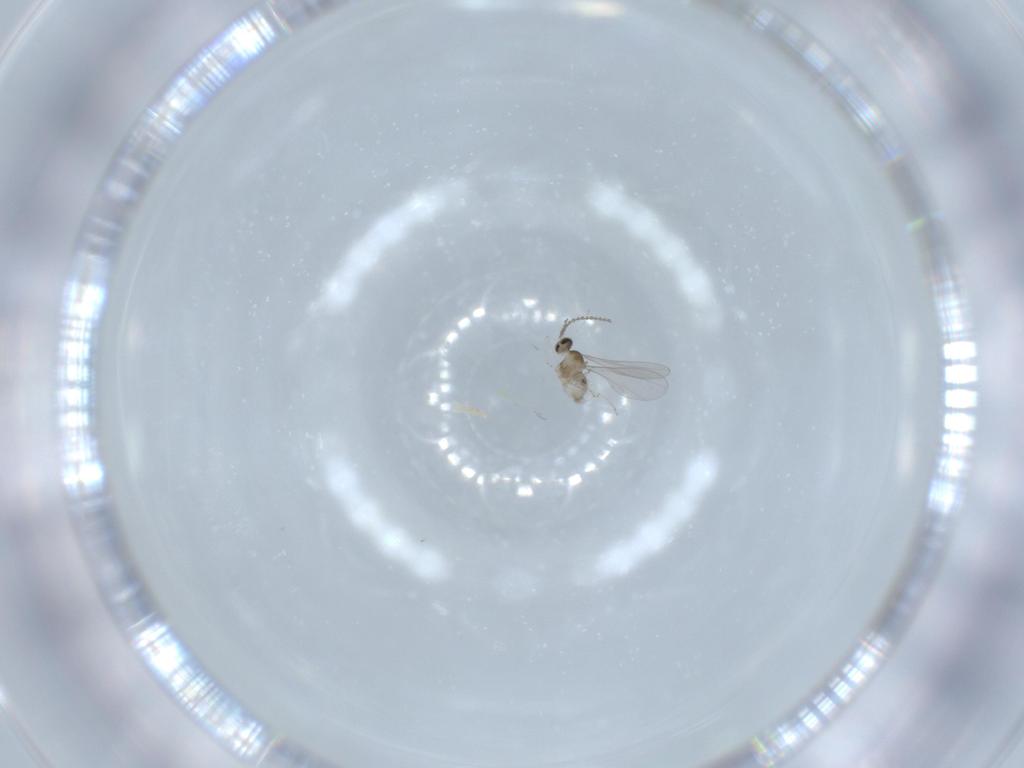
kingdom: Animalia
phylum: Arthropoda
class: Insecta
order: Diptera
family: Cecidomyiidae
